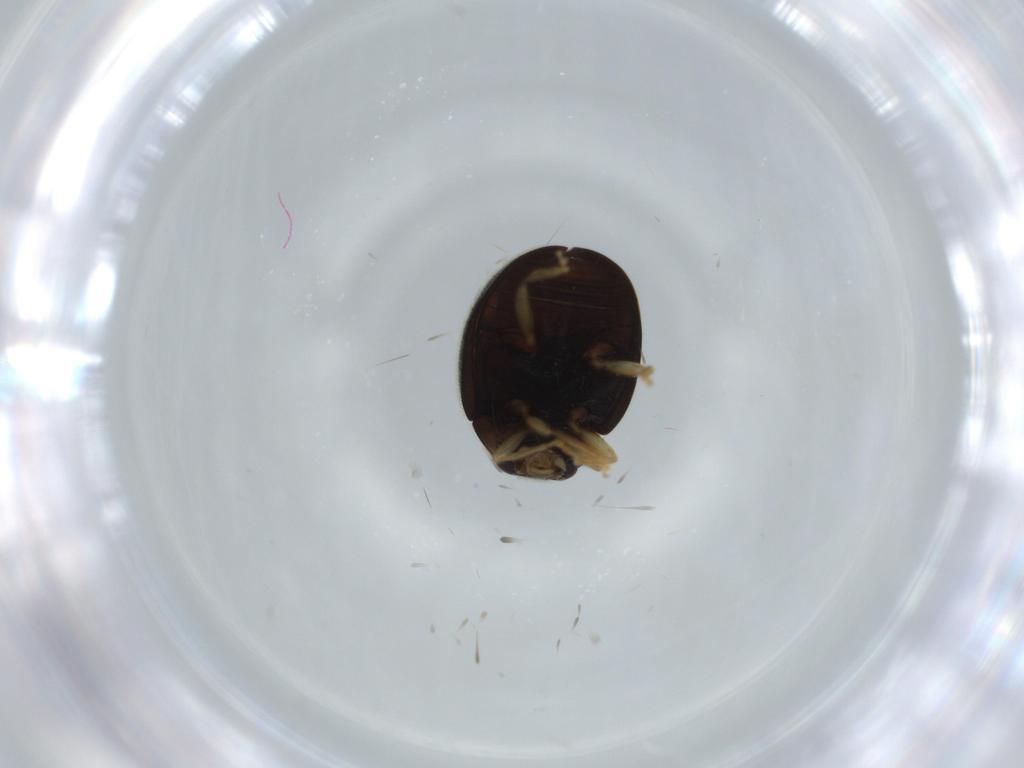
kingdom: Animalia
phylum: Arthropoda
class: Insecta
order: Coleoptera
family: Coccinellidae
